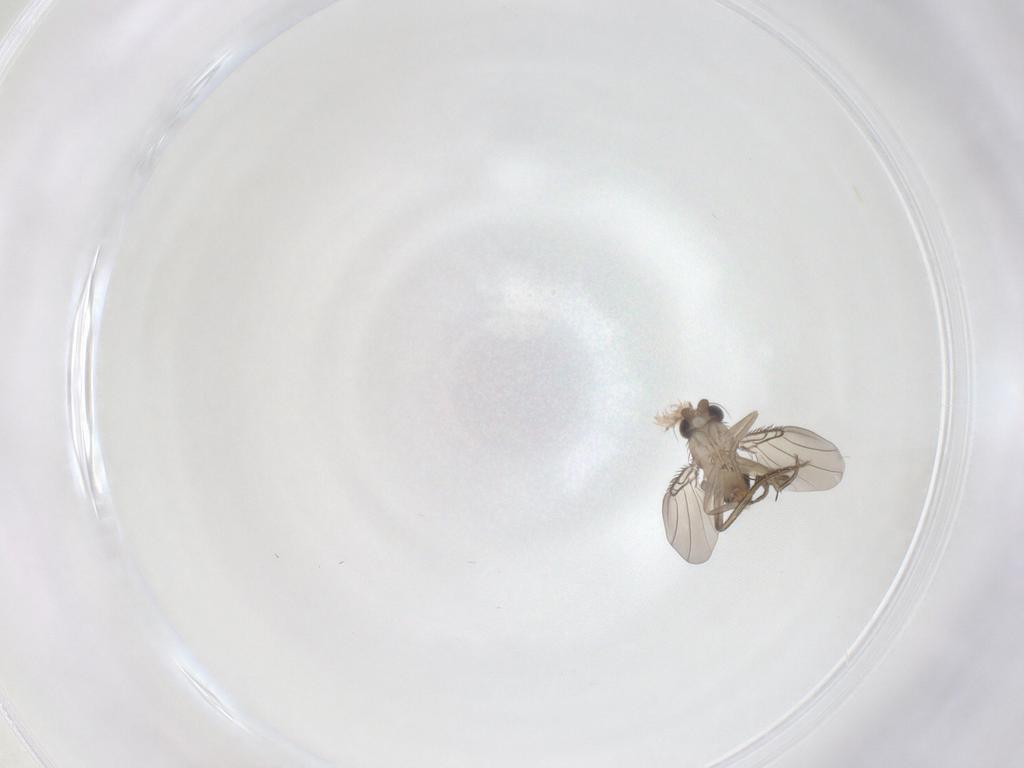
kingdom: Animalia
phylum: Arthropoda
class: Insecta
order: Diptera
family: Phoridae
